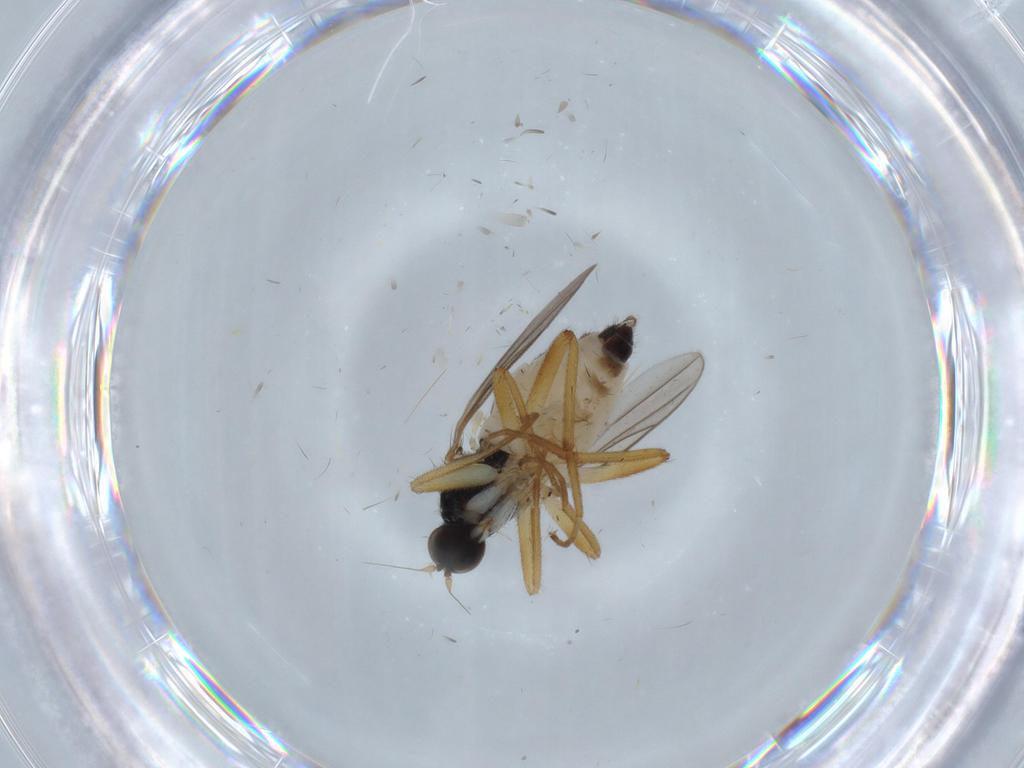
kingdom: Animalia
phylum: Arthropoda
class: Insecta
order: Diptera
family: Hybotidae
